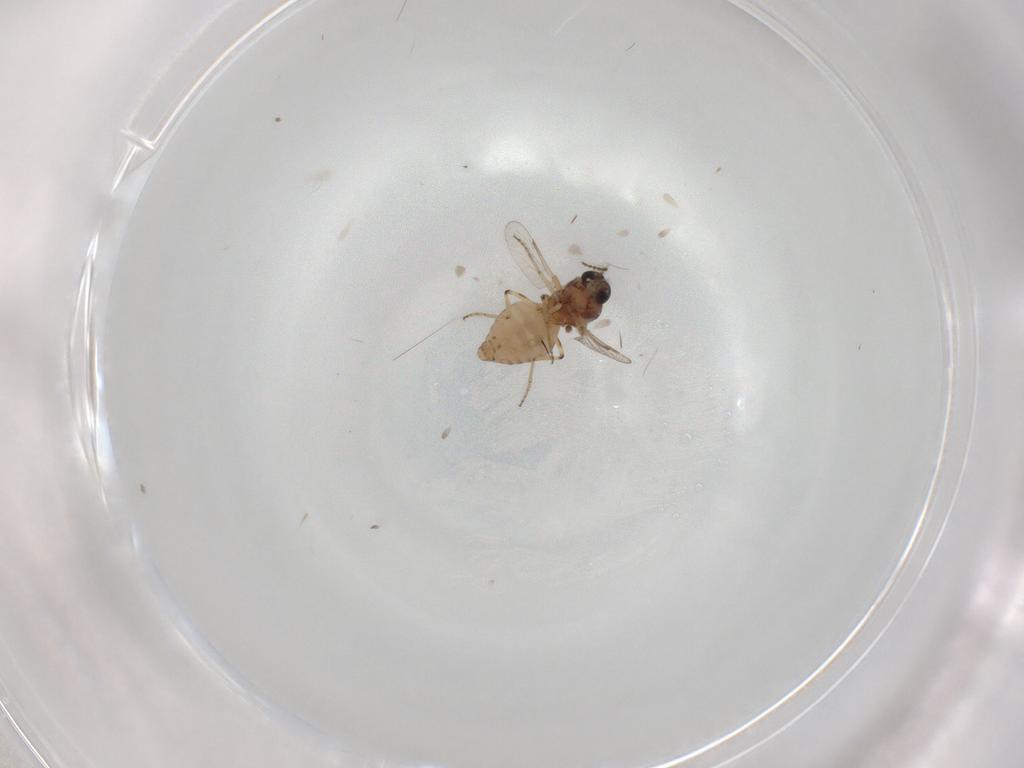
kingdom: Animalia
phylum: Arthropoda
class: Insecta
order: Diptera
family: Ceratopogonidae
